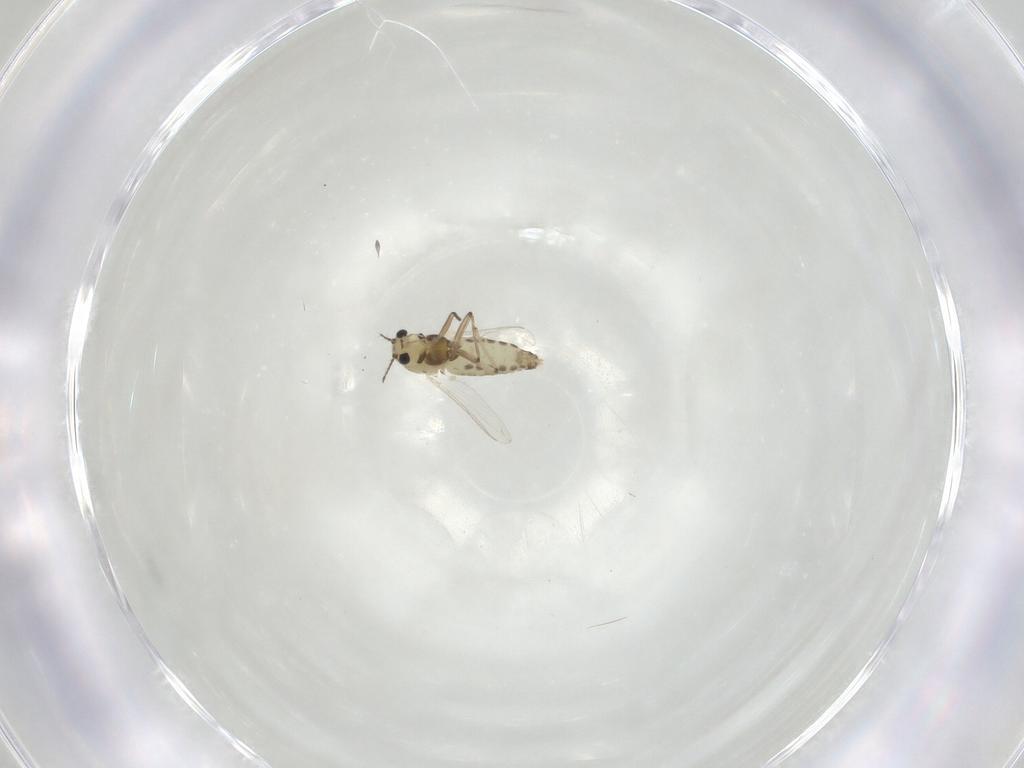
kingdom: Animalia
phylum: Arthropoda
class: Insecta
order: Diptera
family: Chironomidae
